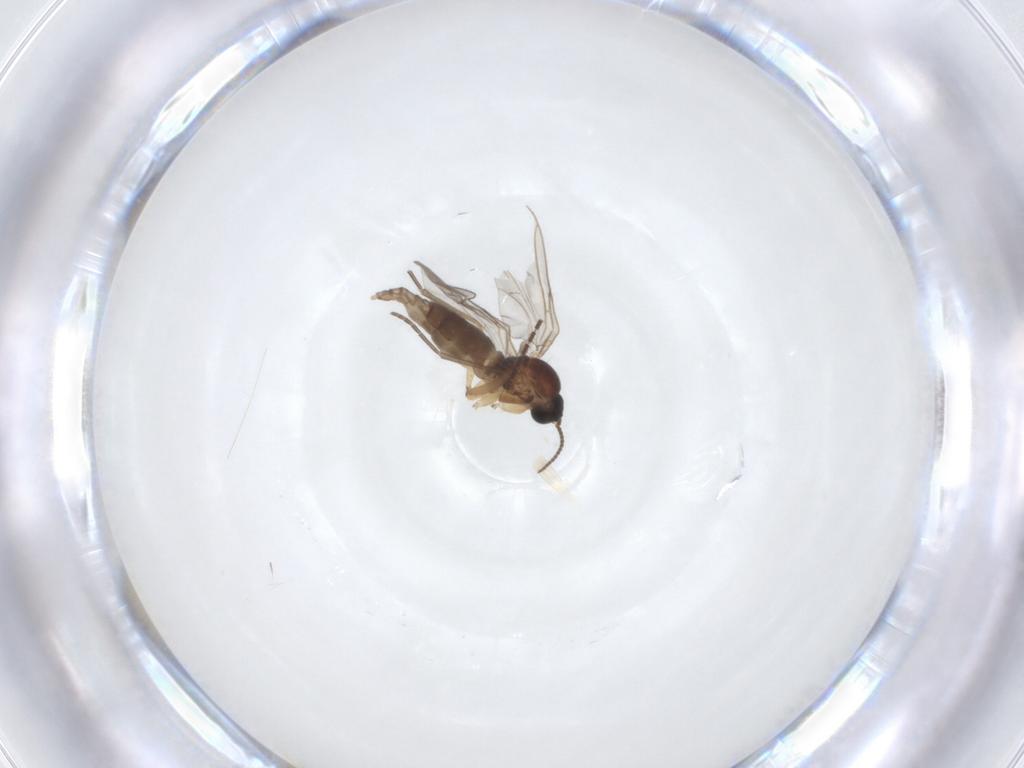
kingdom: Animalia
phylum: Arthropoda
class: Insecta
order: Diptera
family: Sciaridae
